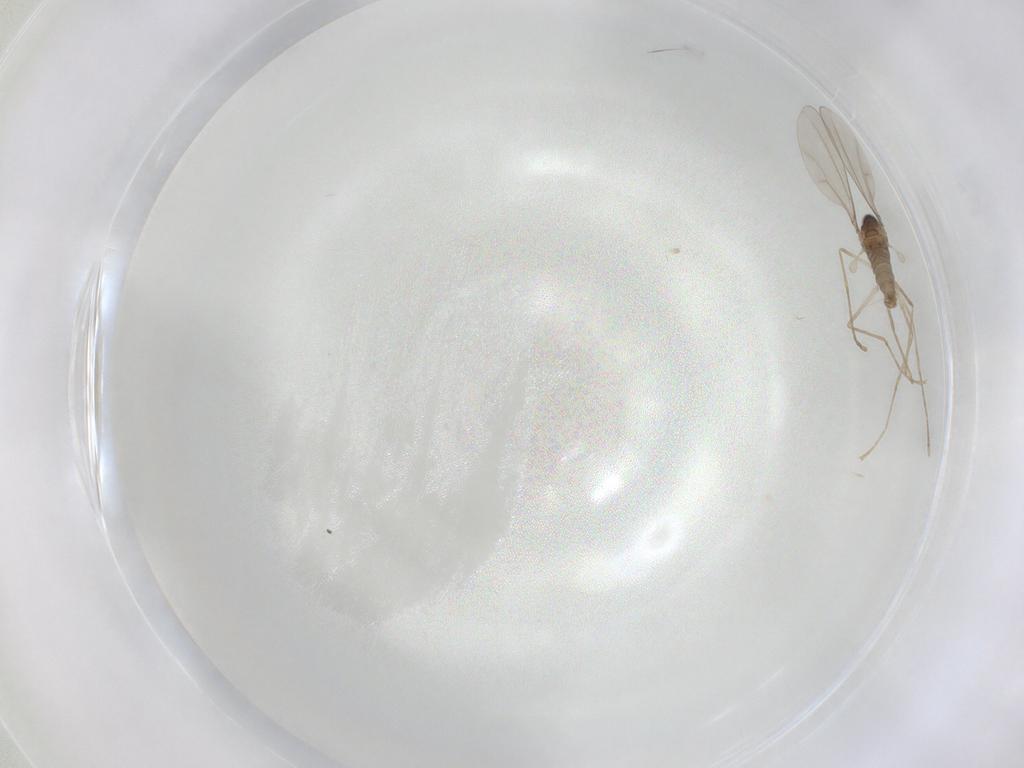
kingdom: Animalia
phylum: Arthropoda
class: Insecta
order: Diptera
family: Cecidomyiidae
